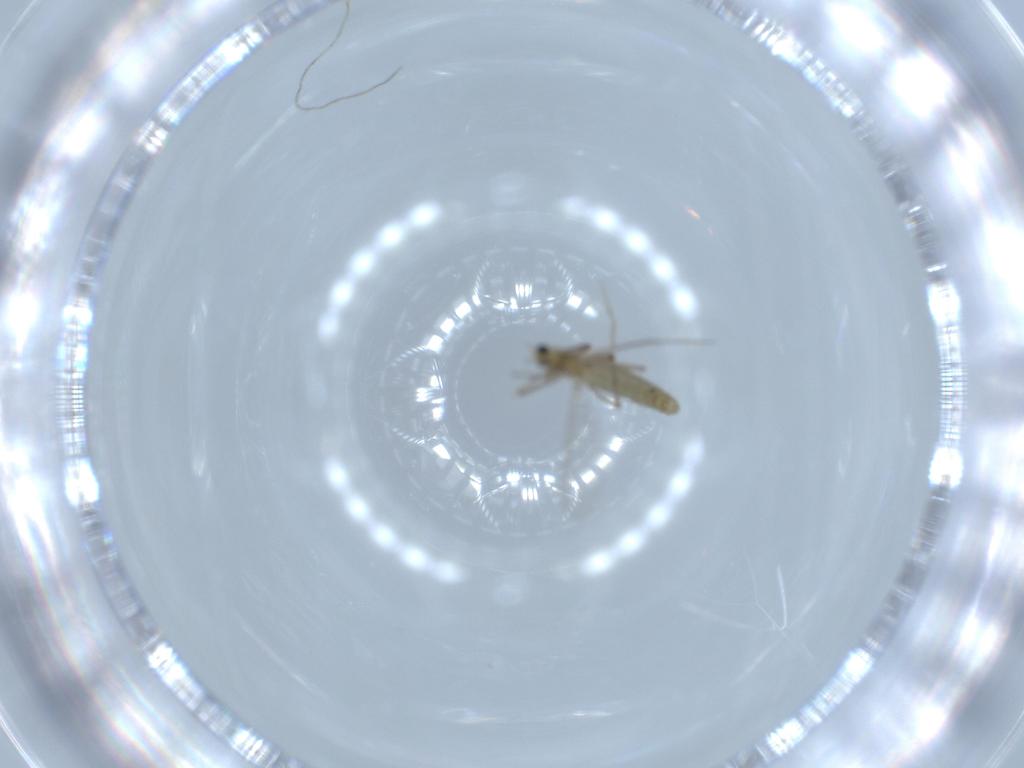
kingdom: Animalia
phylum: Arthropoda
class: Insecta
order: Diptera
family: Chironomidae
